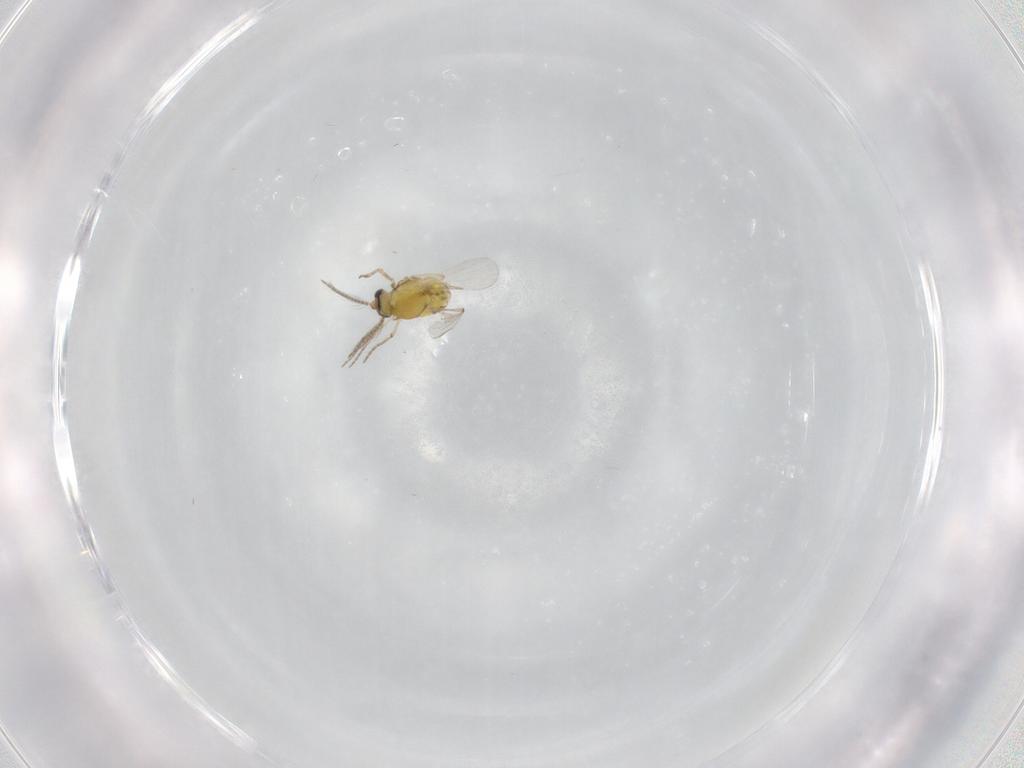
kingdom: Animalia
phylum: Arthropoda
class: Insecta
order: Diptera
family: Ceratopogonidae
